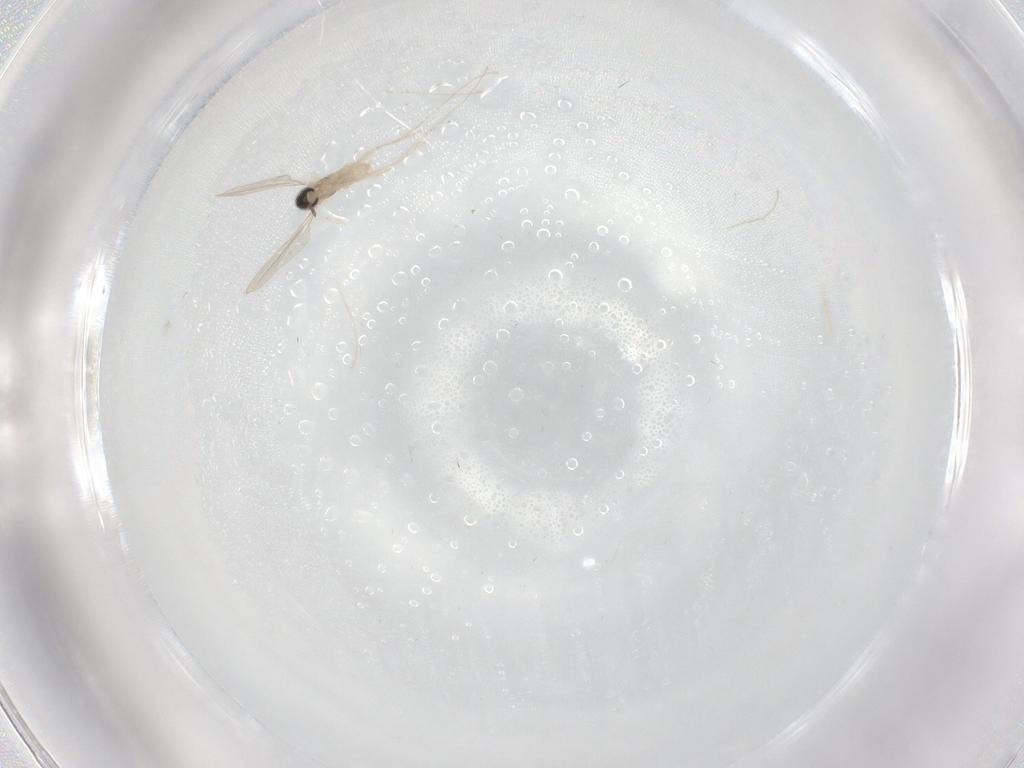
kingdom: Animalia
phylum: Arthropoda
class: Insecta
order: Diptera
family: Cecidomyiidae
